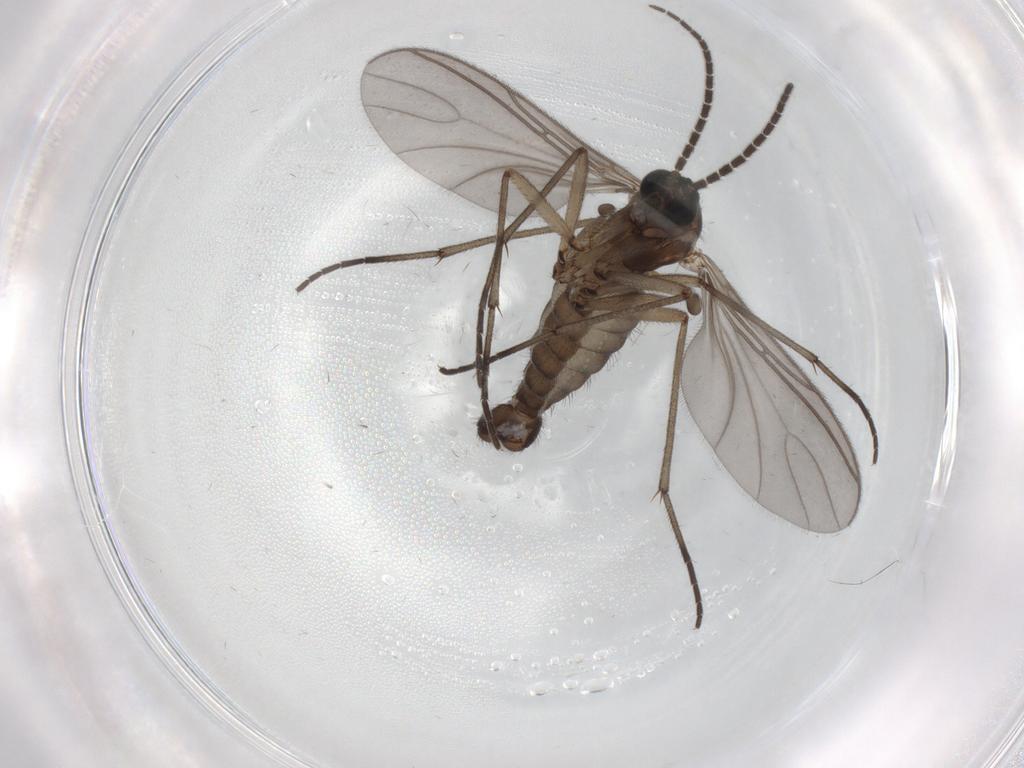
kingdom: Animalia
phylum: Arthropoda
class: Insecta
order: Diptera
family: Sciaridae
